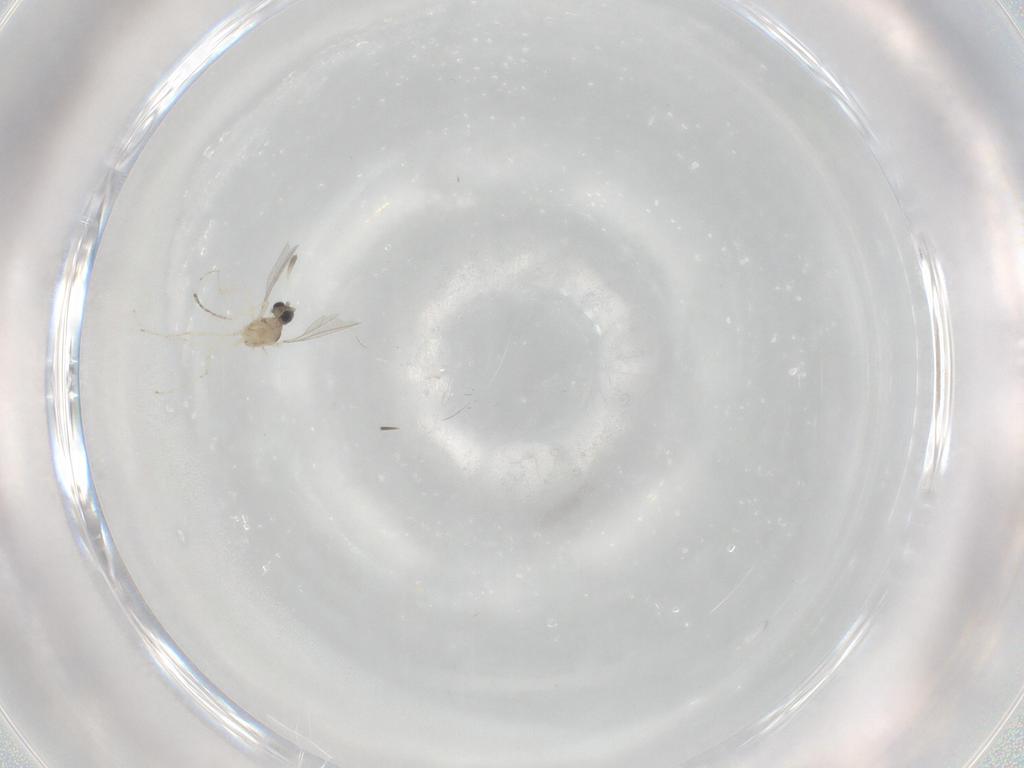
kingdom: Animalia
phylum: Arthropoda
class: Insecta
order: Diptera
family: Cecidomyiidae
